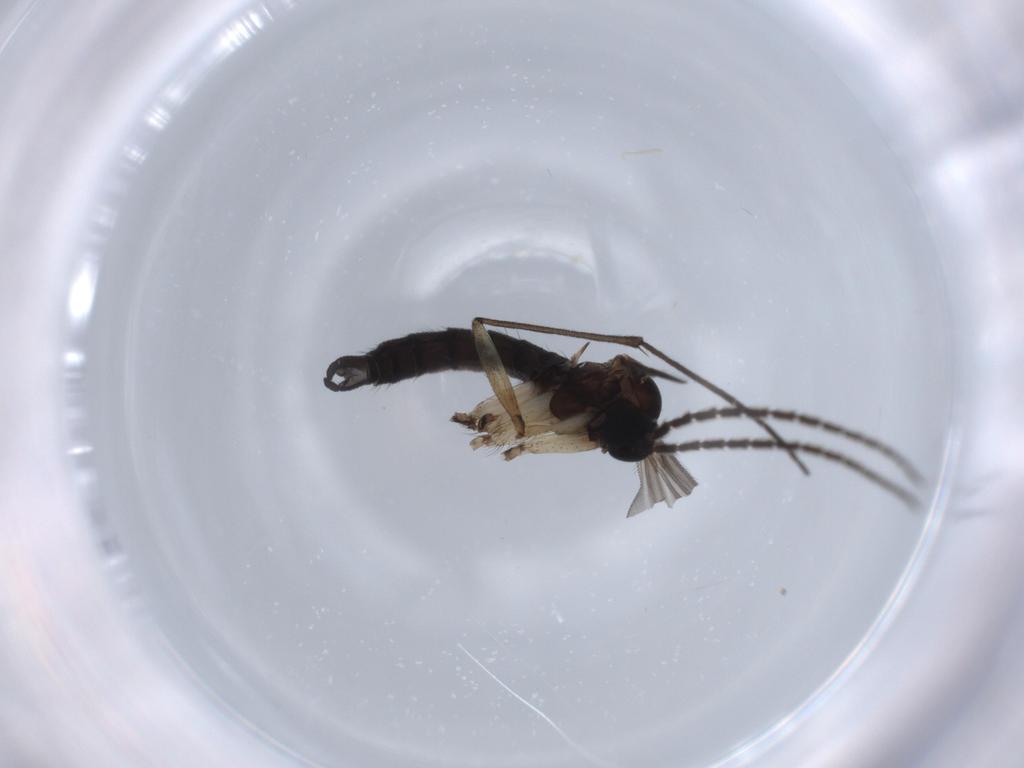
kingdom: Animalia
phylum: Arthropoda
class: Insecta
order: Diptera
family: Sciaridae
